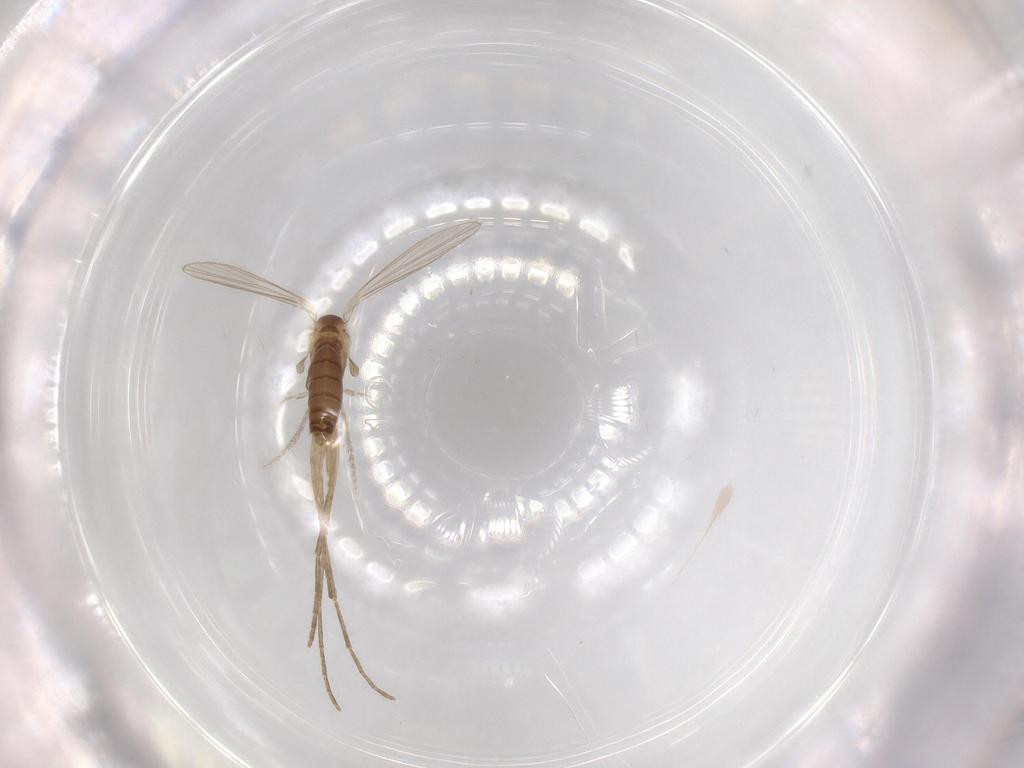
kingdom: Animalia
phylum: Arthropoda
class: Insecta
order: Diptera
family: Psychodidae
